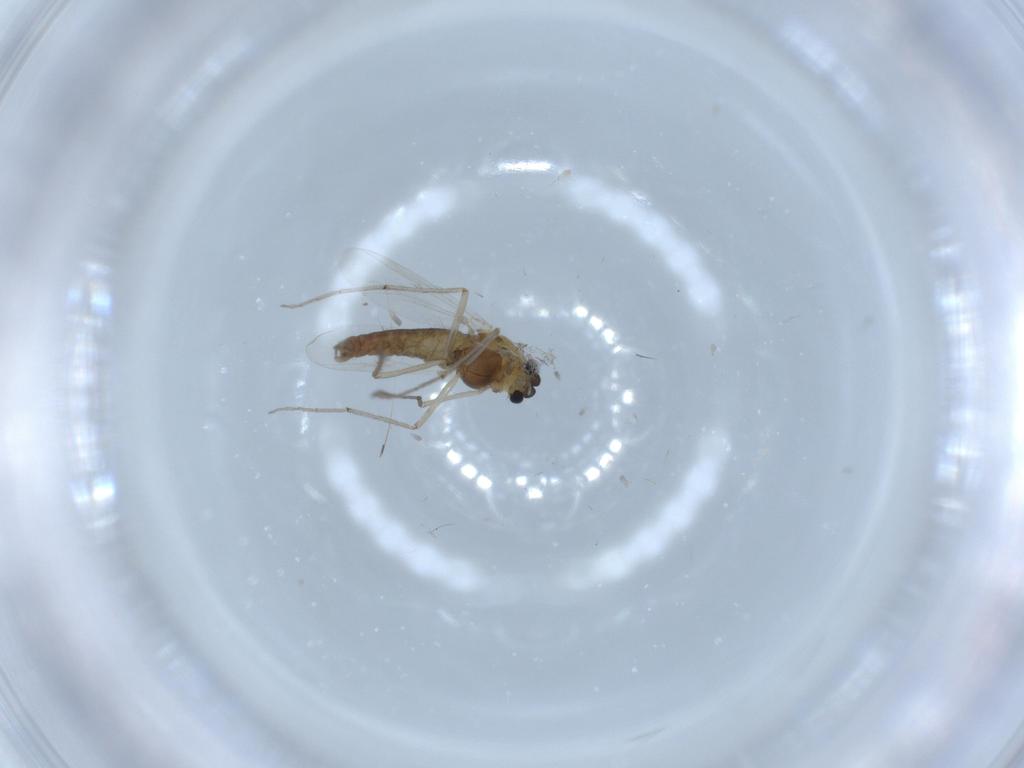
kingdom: Animalia
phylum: Arthropoda
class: Insecta
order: Diptera
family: Chironomidae
